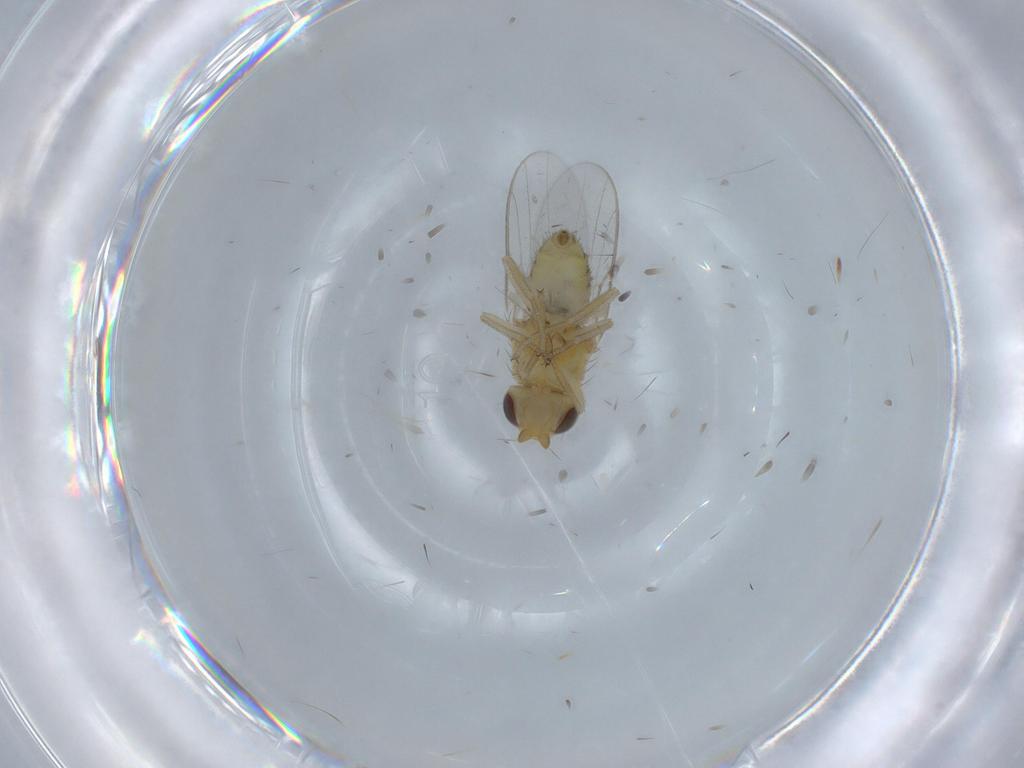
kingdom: Animalia
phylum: Arthropoda
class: Insecta
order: Diptera
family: Chloropidae
